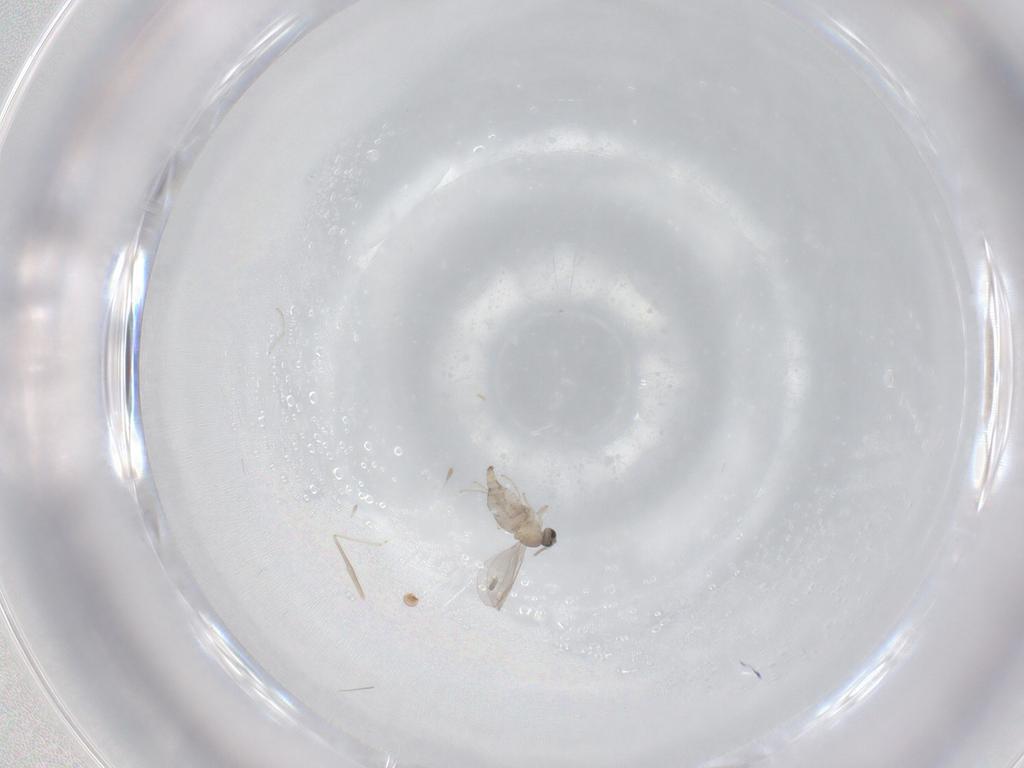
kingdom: Animalia
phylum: Arthropoda
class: Insecta
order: Diptera
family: Cecidomyiidae
